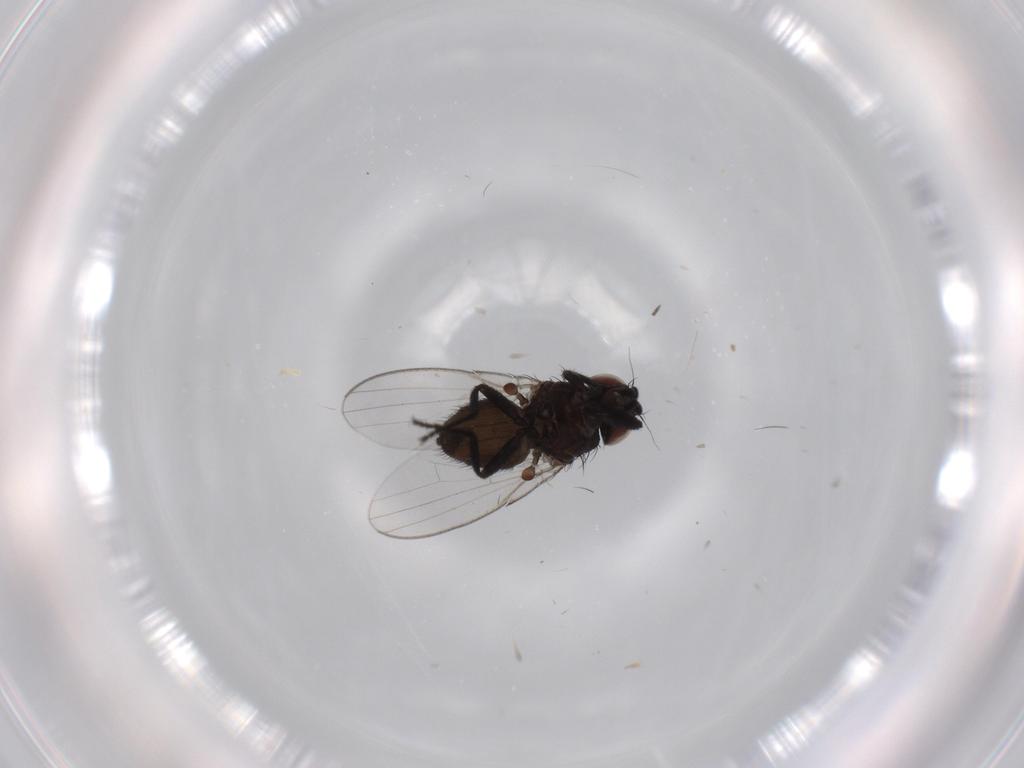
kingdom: Animalia
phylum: Arthropoda
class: Insecta
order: Diptera
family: Milichiidae
